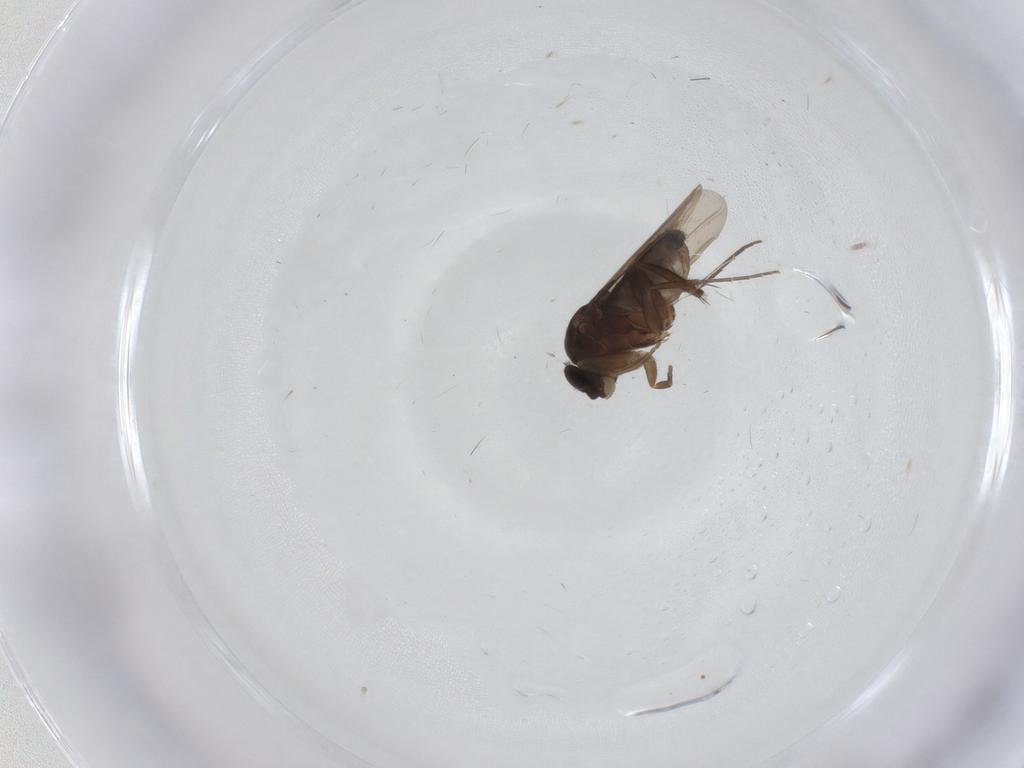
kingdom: Animalia
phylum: Arthropoda
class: Insecta
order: Diptera
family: Phoridae
